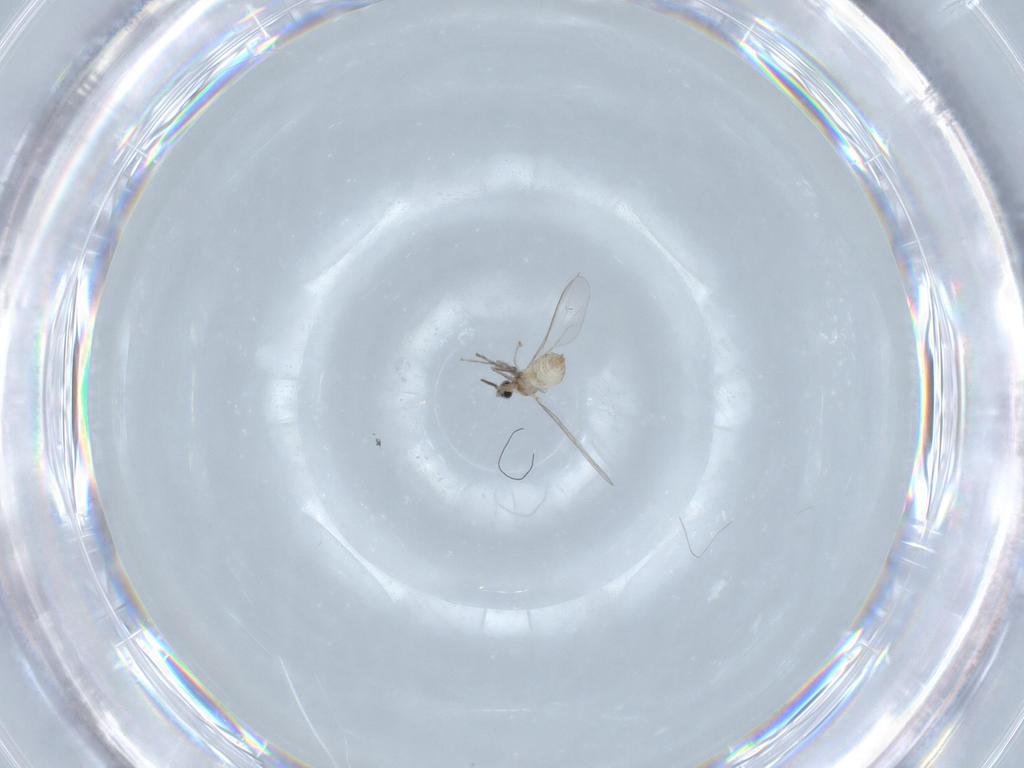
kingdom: Animalia
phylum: Arthropoda
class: Insecta
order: Diptera
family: Cecidomyiidae
